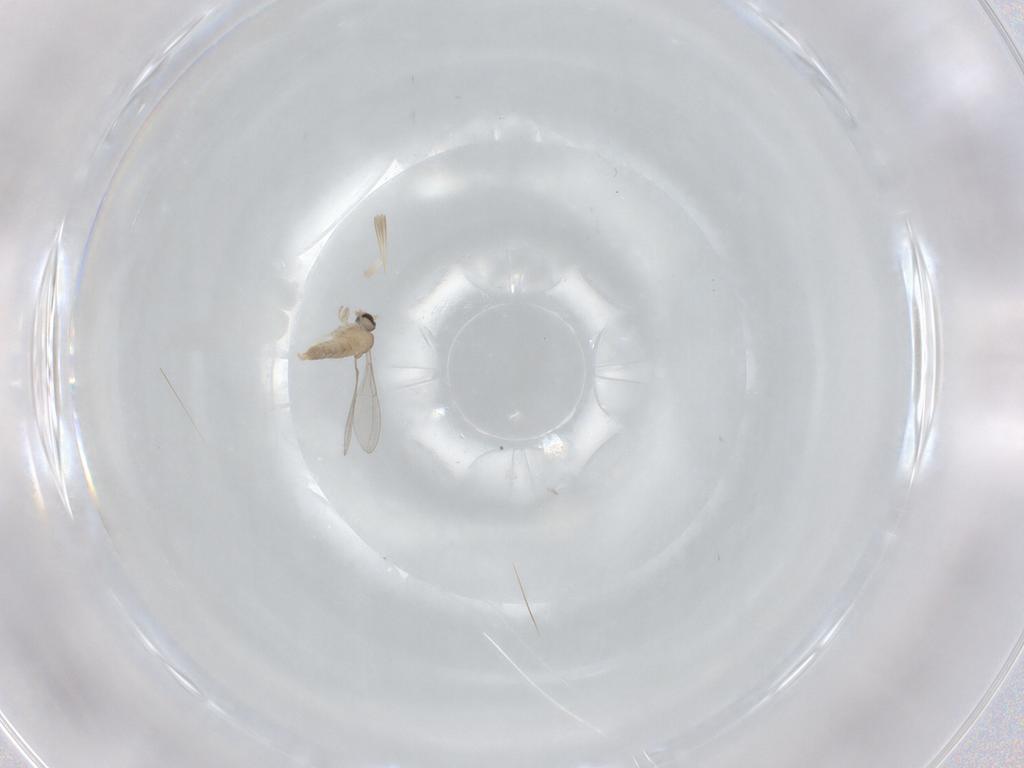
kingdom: Animalia
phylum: Arthropoda
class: Insecta
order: Diptera
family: Cecidomyiidae
